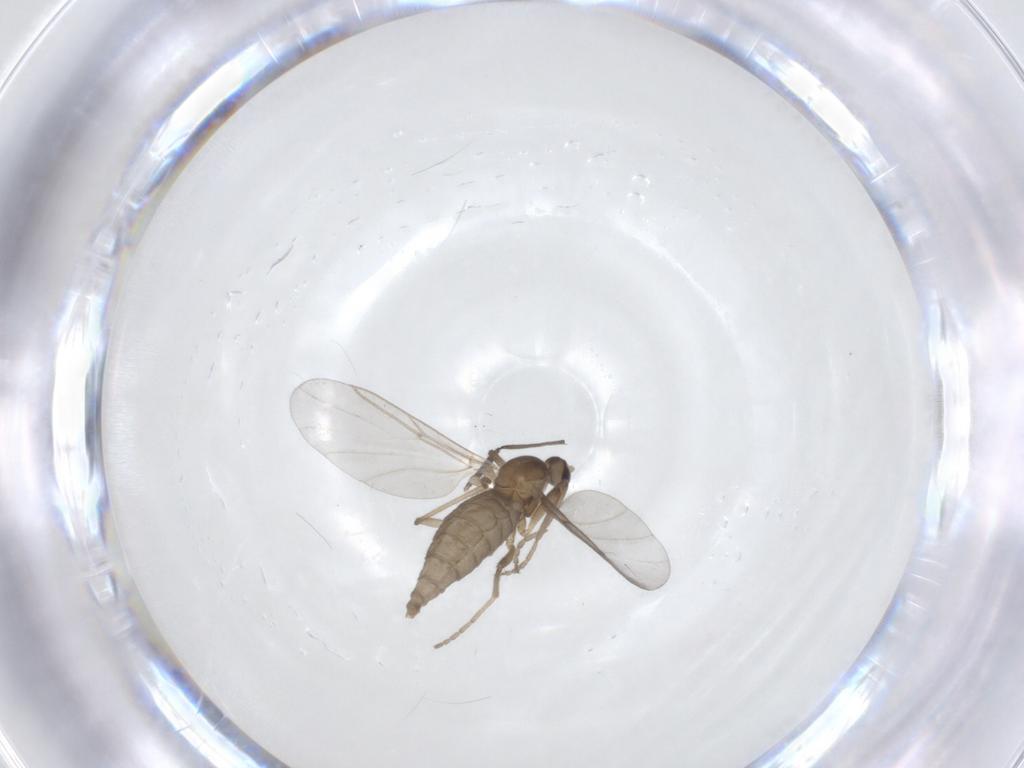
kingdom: Animalia
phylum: Arthropoda
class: Insecta
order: Diptera
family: Cecidomyiidae
